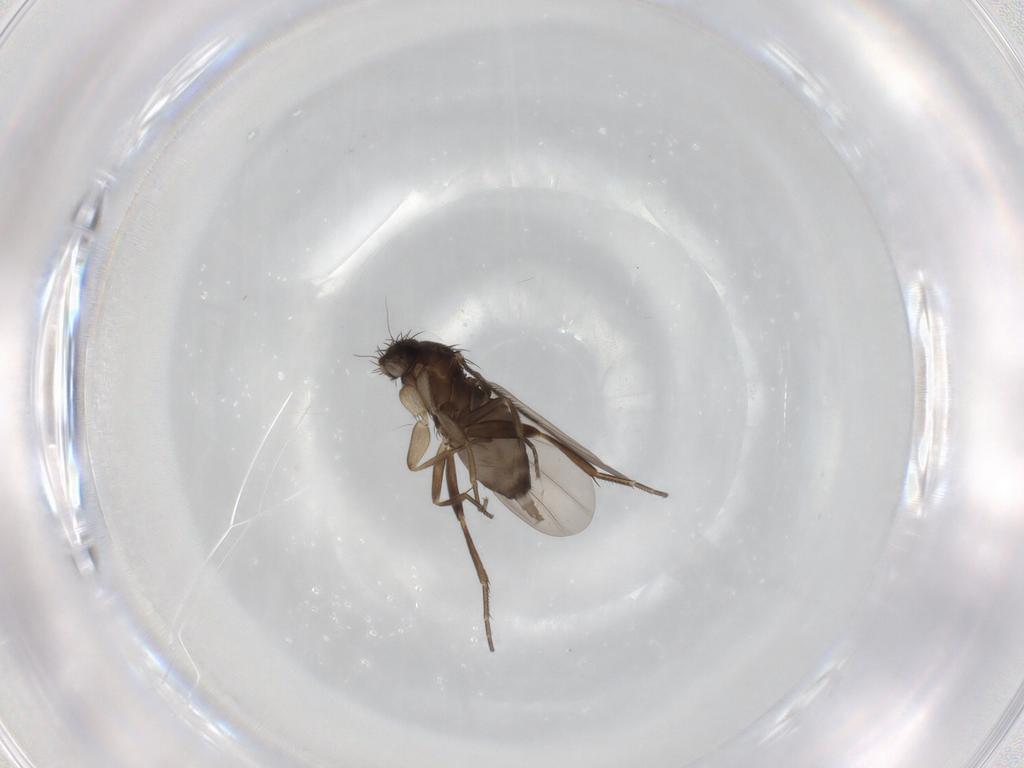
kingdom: Animalia
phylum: Arthropoda
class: Insecta
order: Diptera
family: Phoridae
